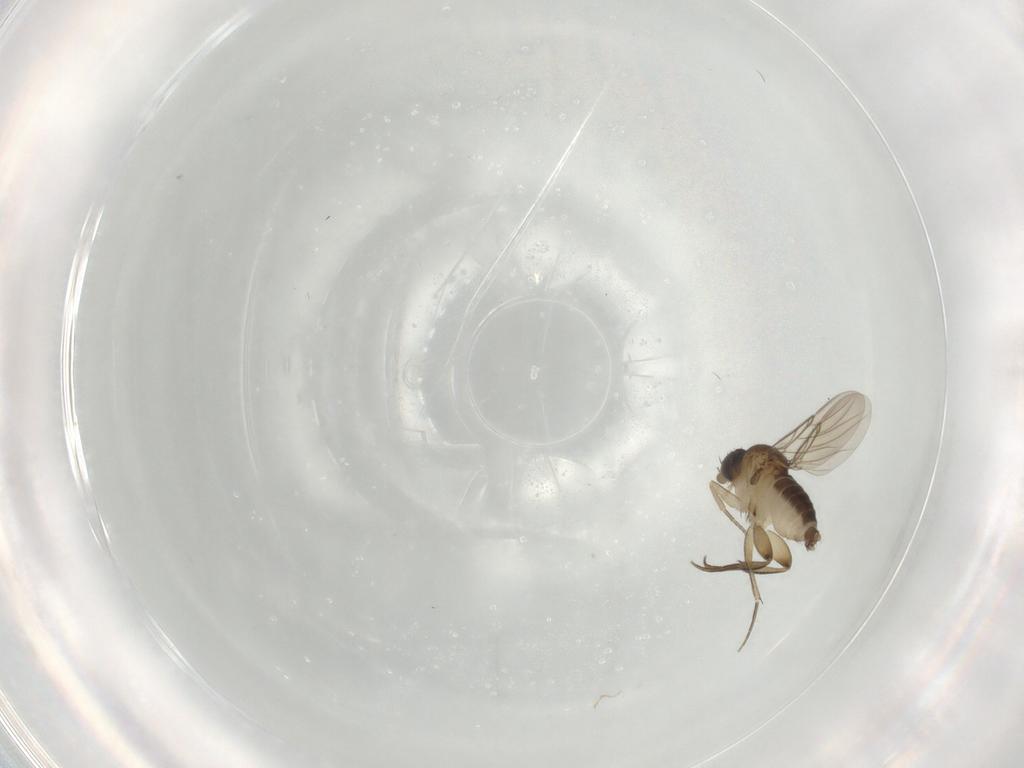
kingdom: Animalia
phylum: Arthropoda
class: Insecta
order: Diptera
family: Phoridae
